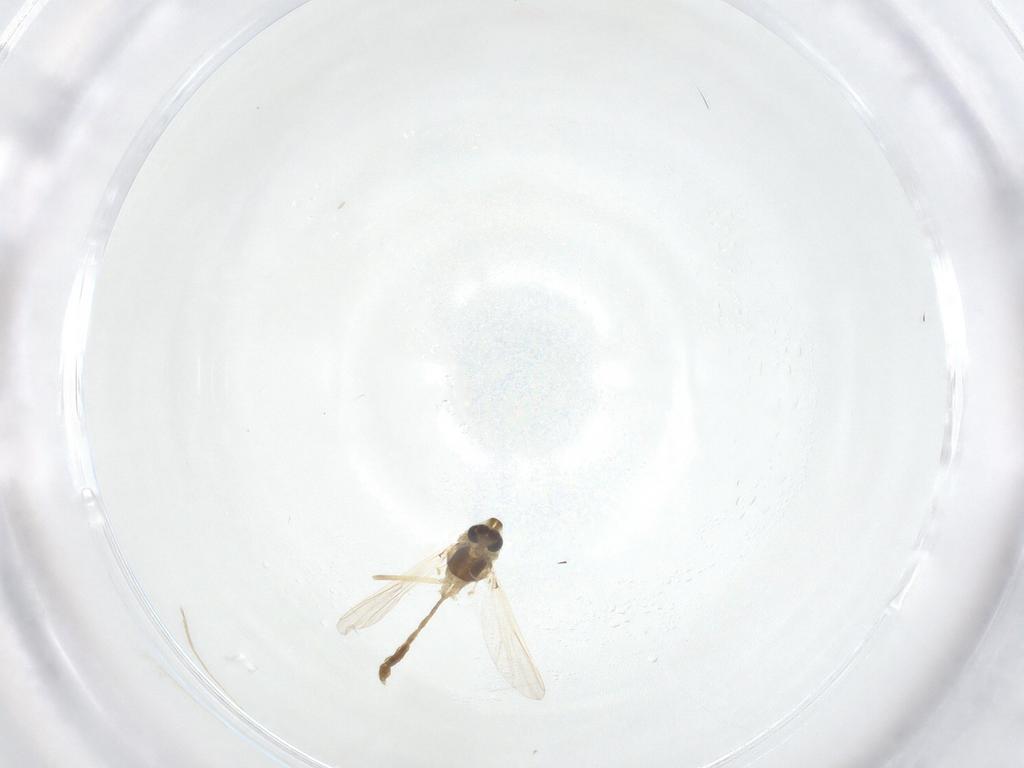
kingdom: Animalia
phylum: Arthropoda
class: Insecta
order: Diptera
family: Chironomidae
